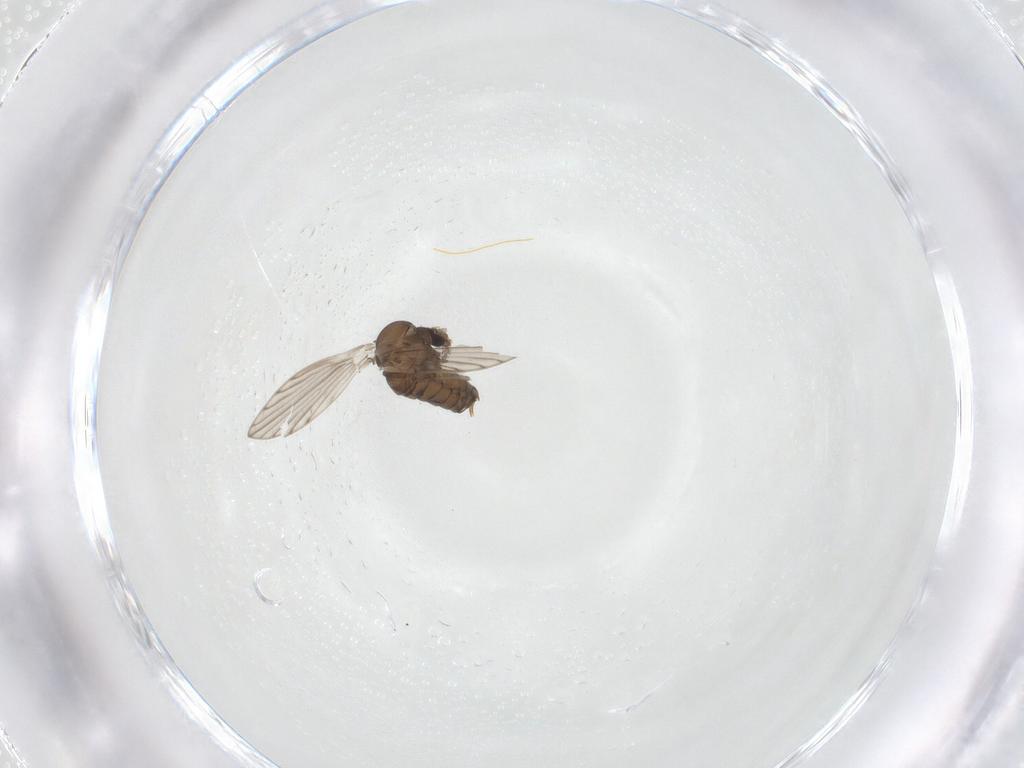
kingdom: Animalia
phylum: Arthropoda
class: Insecta
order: Diptera
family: Psychodidae
